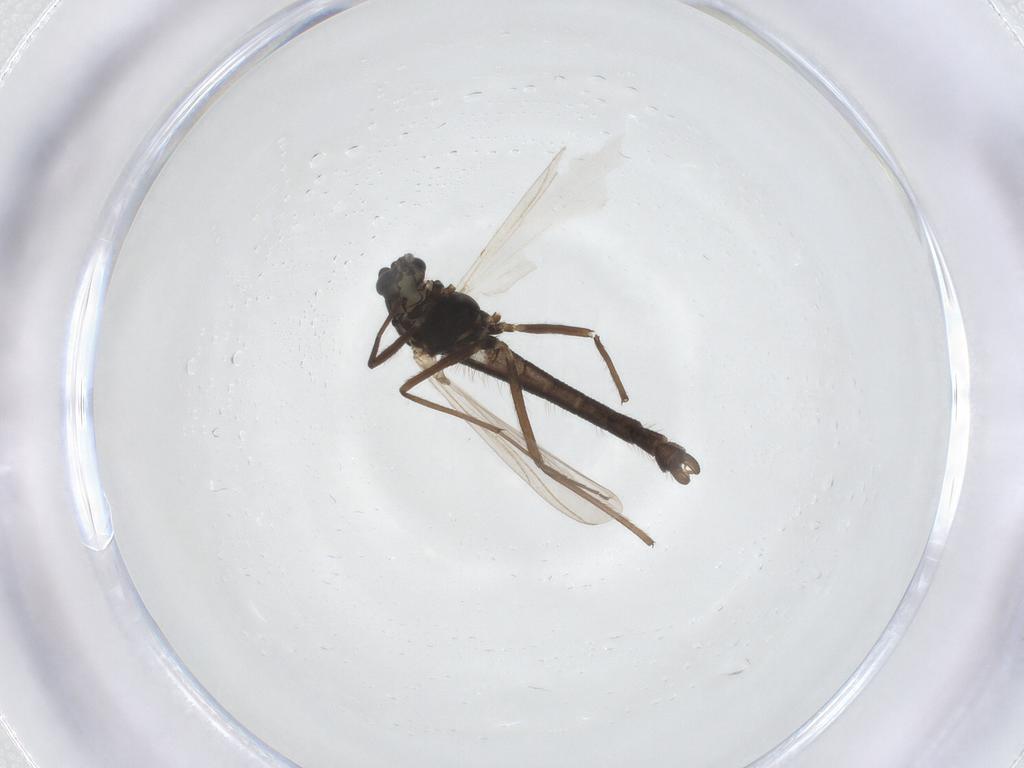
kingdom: Animalia
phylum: Arthropoda
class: Insecta
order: Diptera
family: Chironomidae
